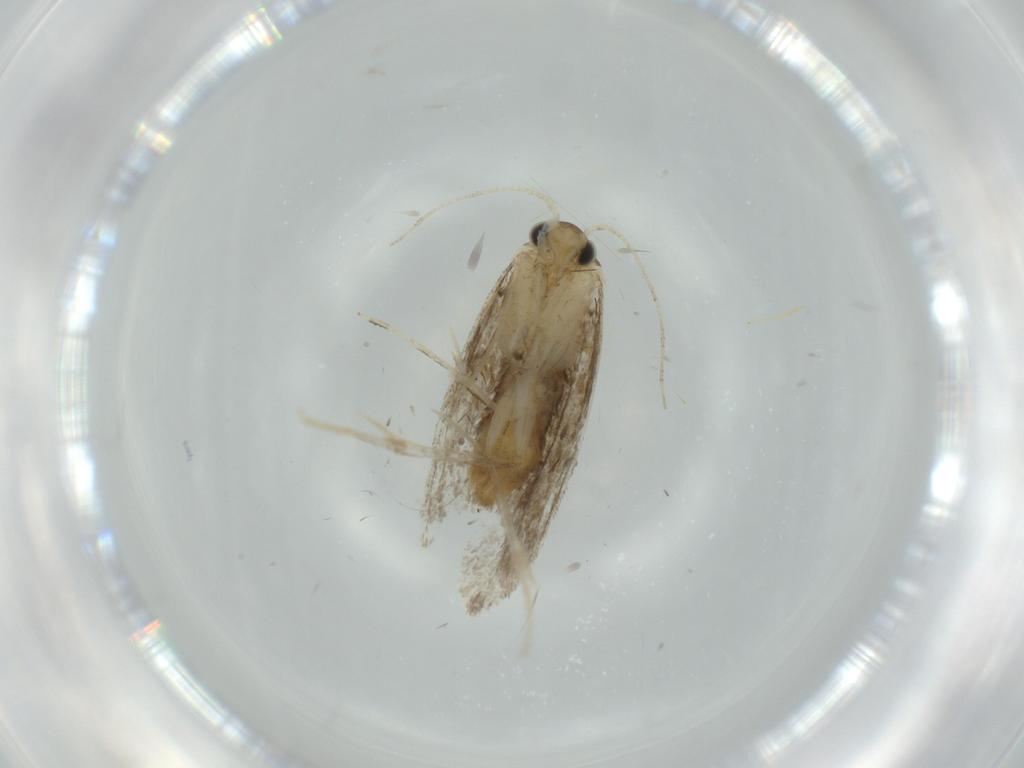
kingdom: Animalia
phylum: Arthropoda
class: Insecta
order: Lepidoptera
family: Tineidae
